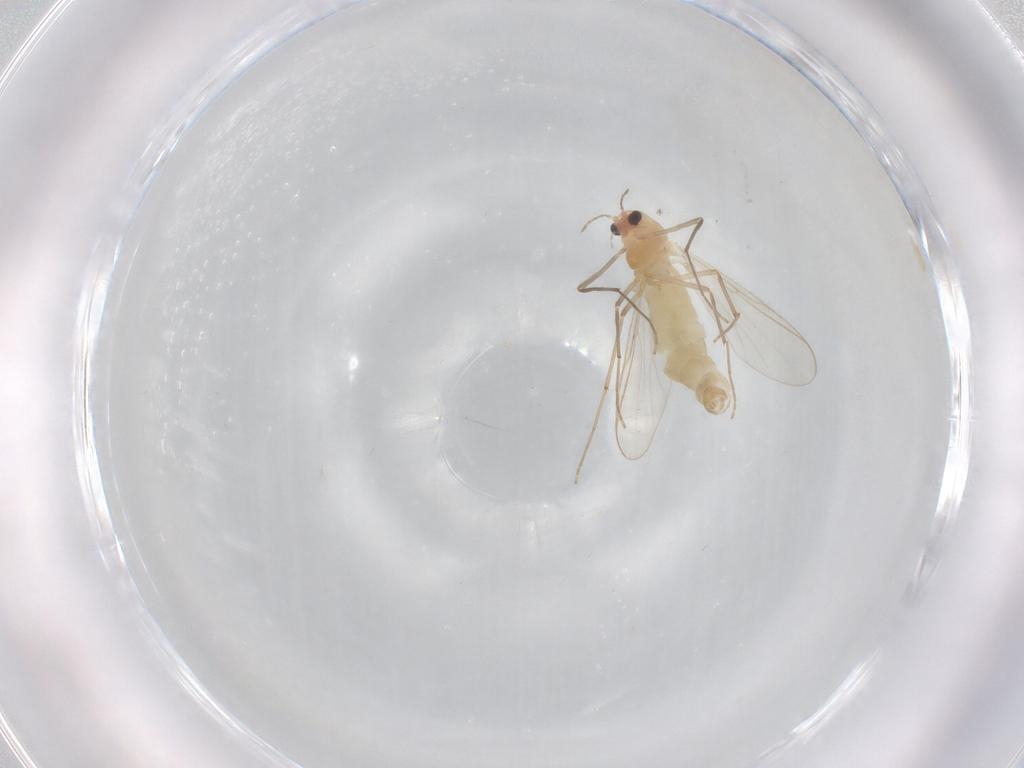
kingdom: Animalia
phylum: Arthropoda
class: Insecta
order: Diptera
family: Chironomidae
